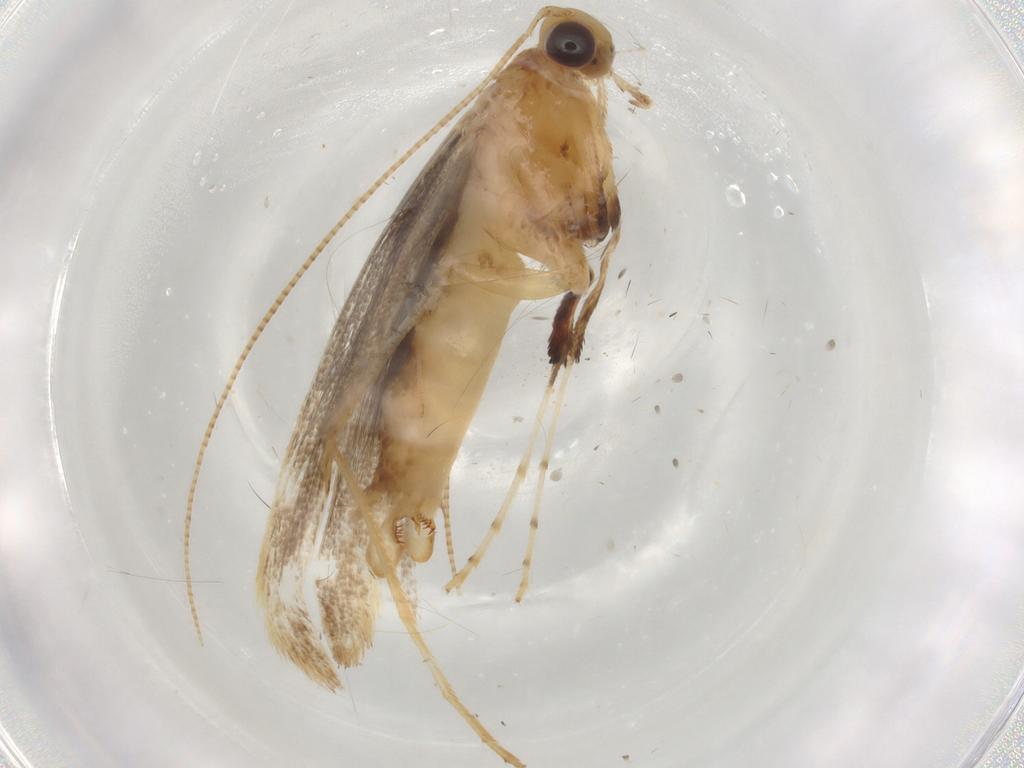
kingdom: Animalia
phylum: Arthropoda
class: Insecta
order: Lepidoptera
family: Gracillariidae
